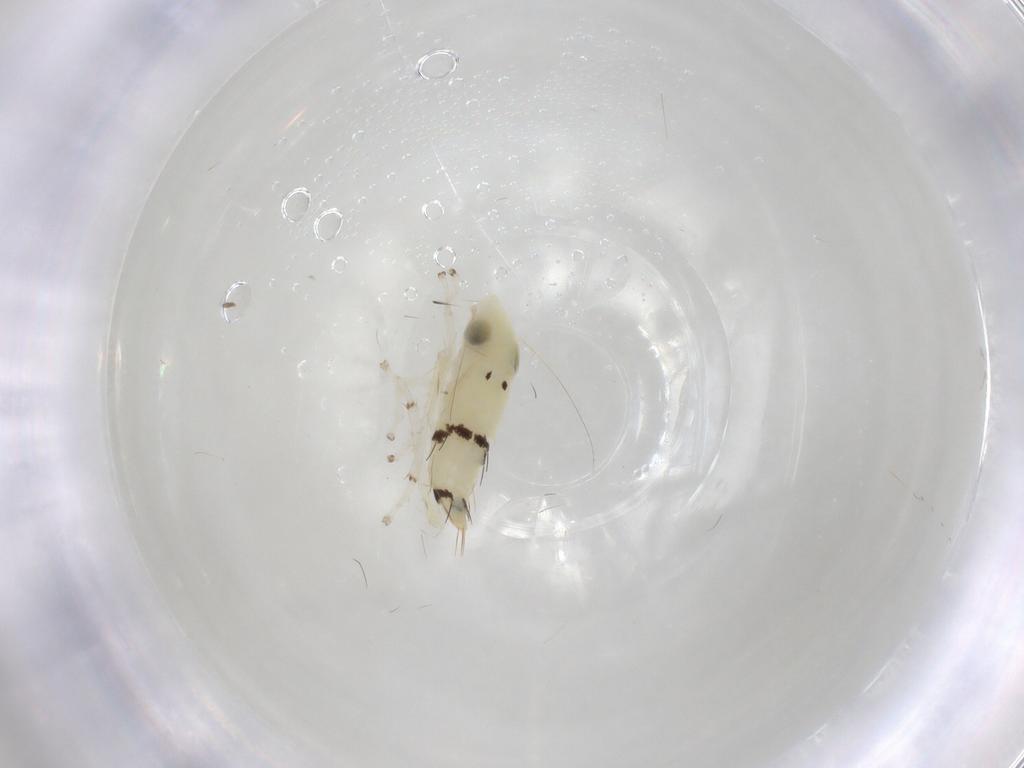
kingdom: Animalia
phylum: Arthropoda
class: Insecta
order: Hemiptera
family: Cicadellidae
